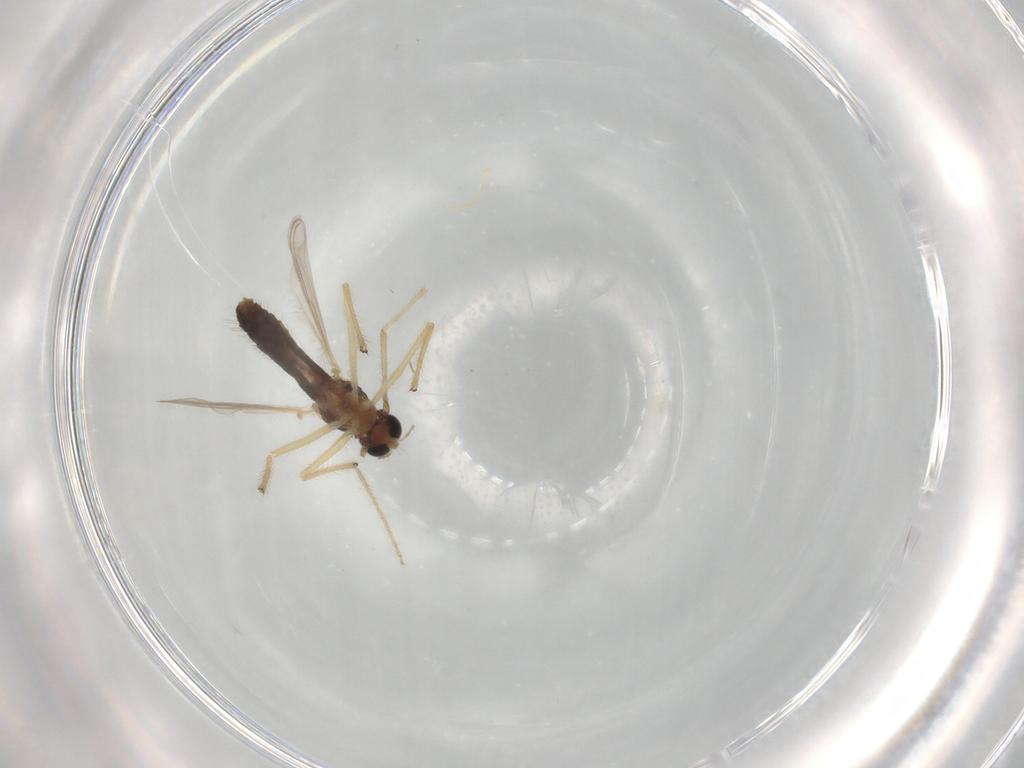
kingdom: Animalia
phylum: Arthropoda
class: Insecta
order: Diptera
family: Chironomidae
